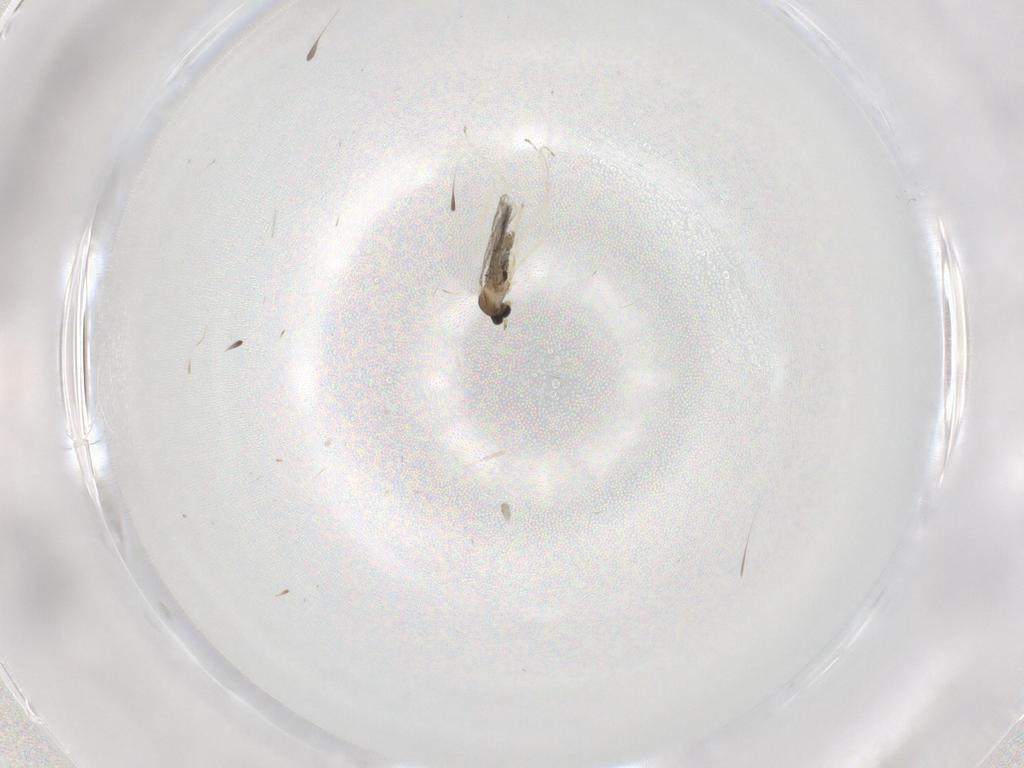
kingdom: Animalia
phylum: Arthropoda
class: Insecta
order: Diptera
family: Cecidomyiidae
